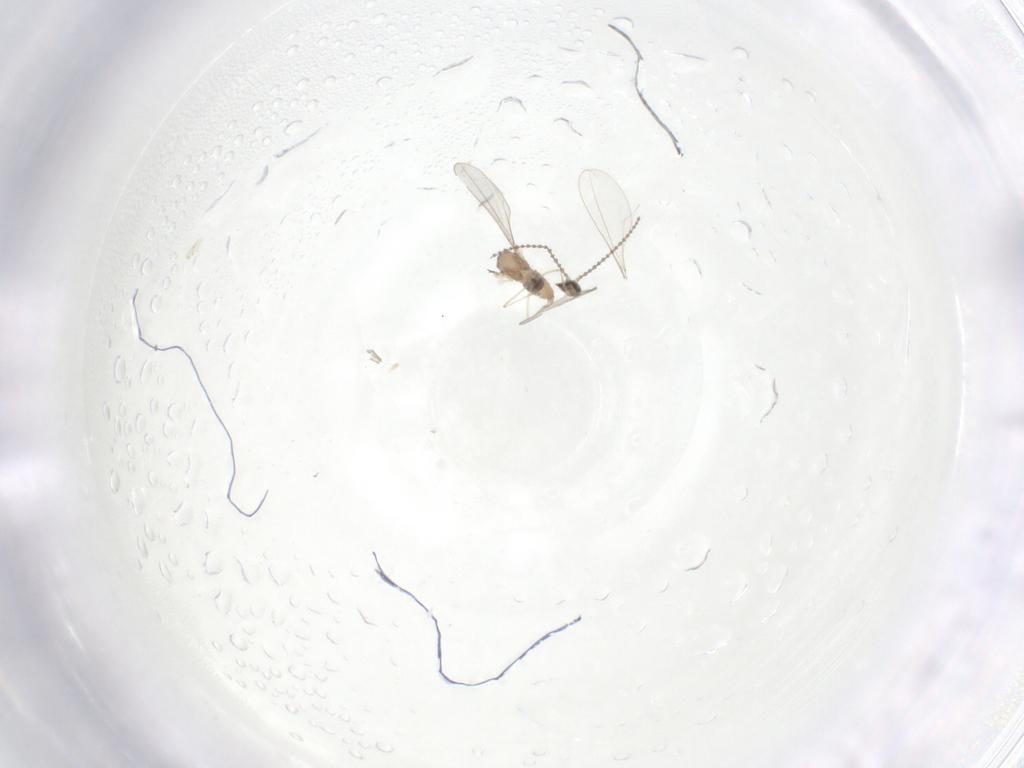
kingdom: Animalia
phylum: Arthropoda
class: Insecta
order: Diptera
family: Cecidomyiidae
